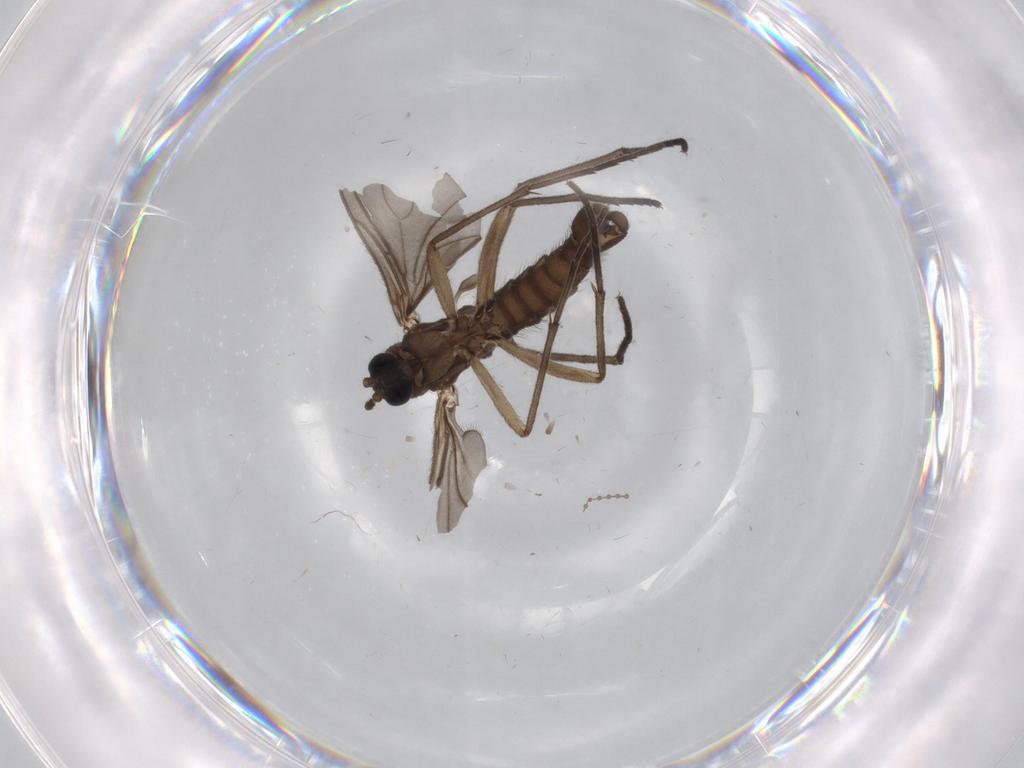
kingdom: Animalia
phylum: Arthropoda
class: Insecta
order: Diptera
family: Sciaridae
